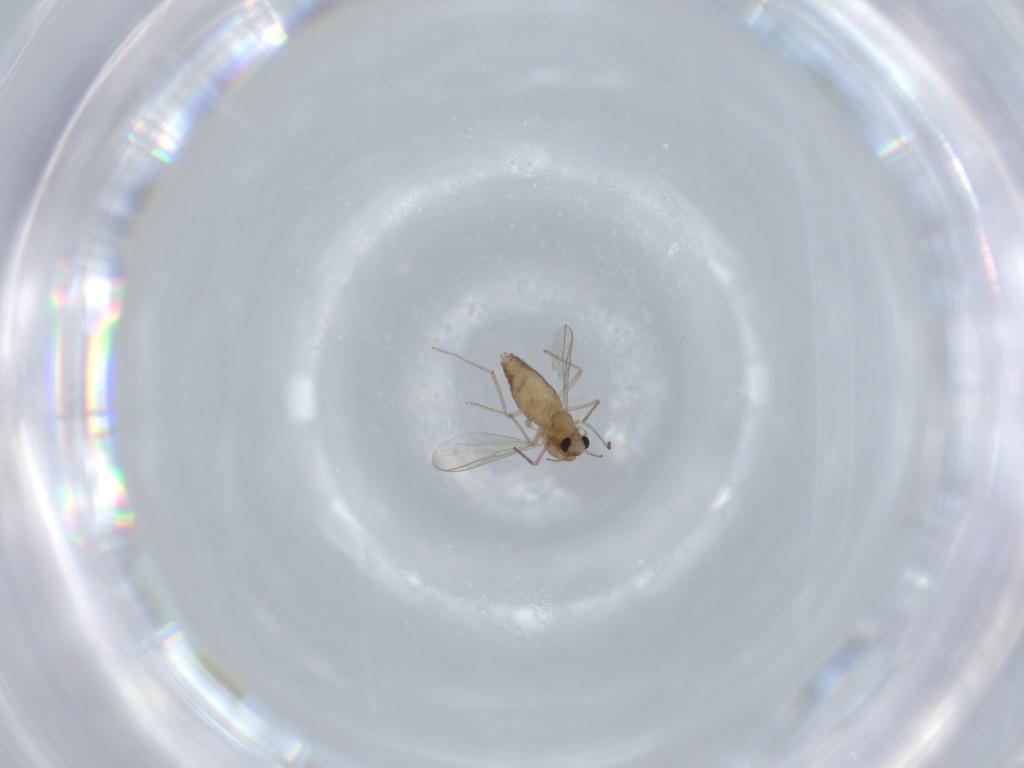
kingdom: Animalia
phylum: Arthropoda
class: Insecta
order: Diptera
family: Chironomidae
